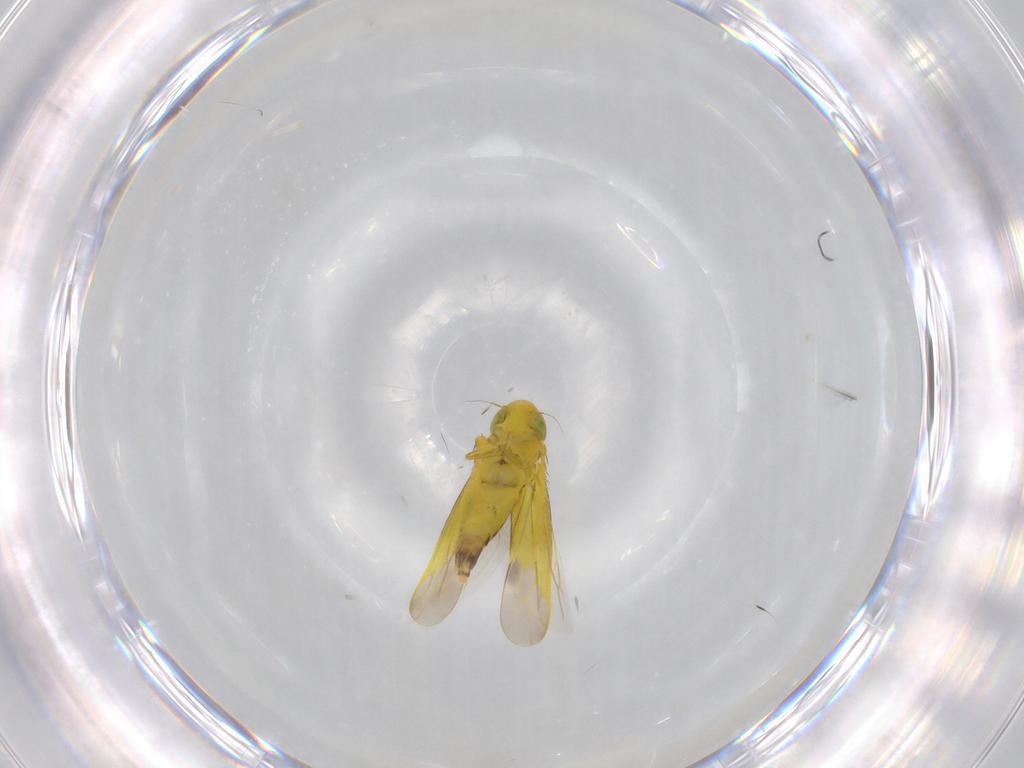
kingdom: Animalia
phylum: Arthropoda
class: Insecta
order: Hemiptera
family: Cicadellidae
